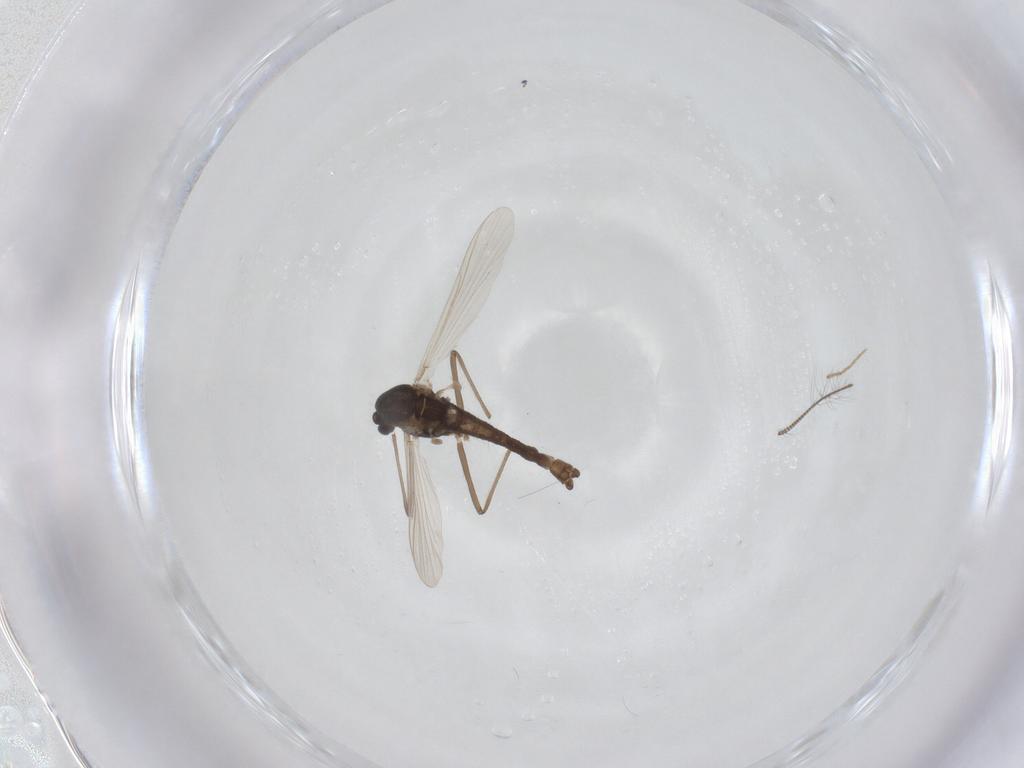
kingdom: Animalia
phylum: Arthropoda
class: Insecta
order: Diptera
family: Chironomidae
